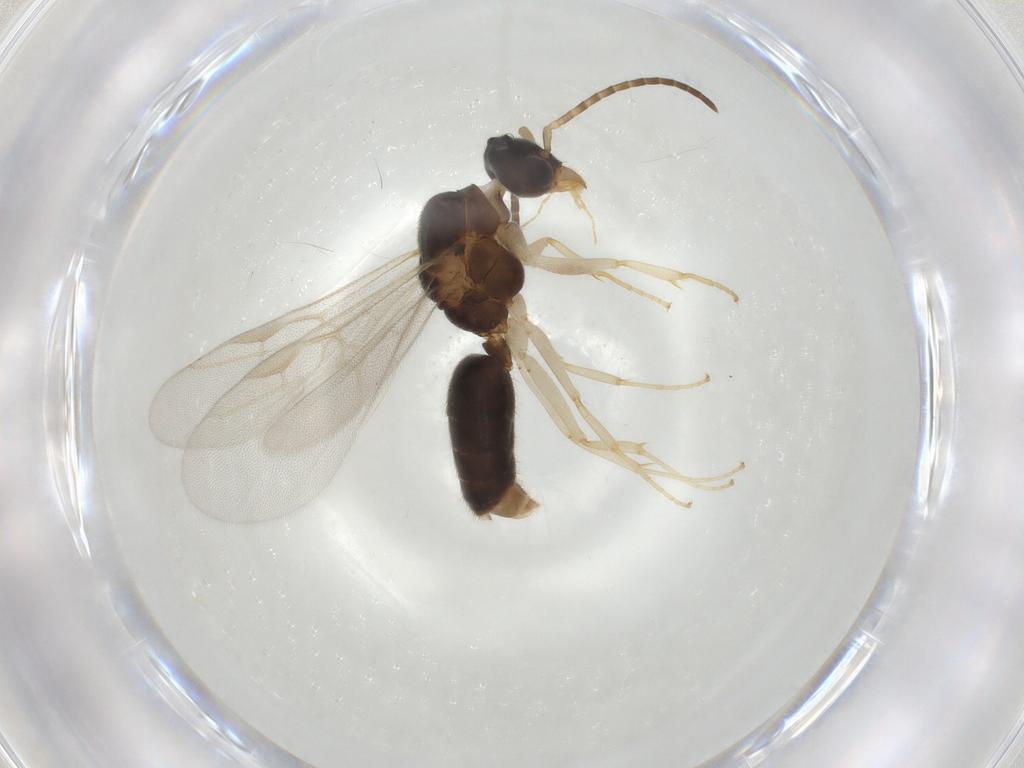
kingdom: Animalia
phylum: Arthropoda
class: Insecta
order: Hymenoptera
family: Formicidae
